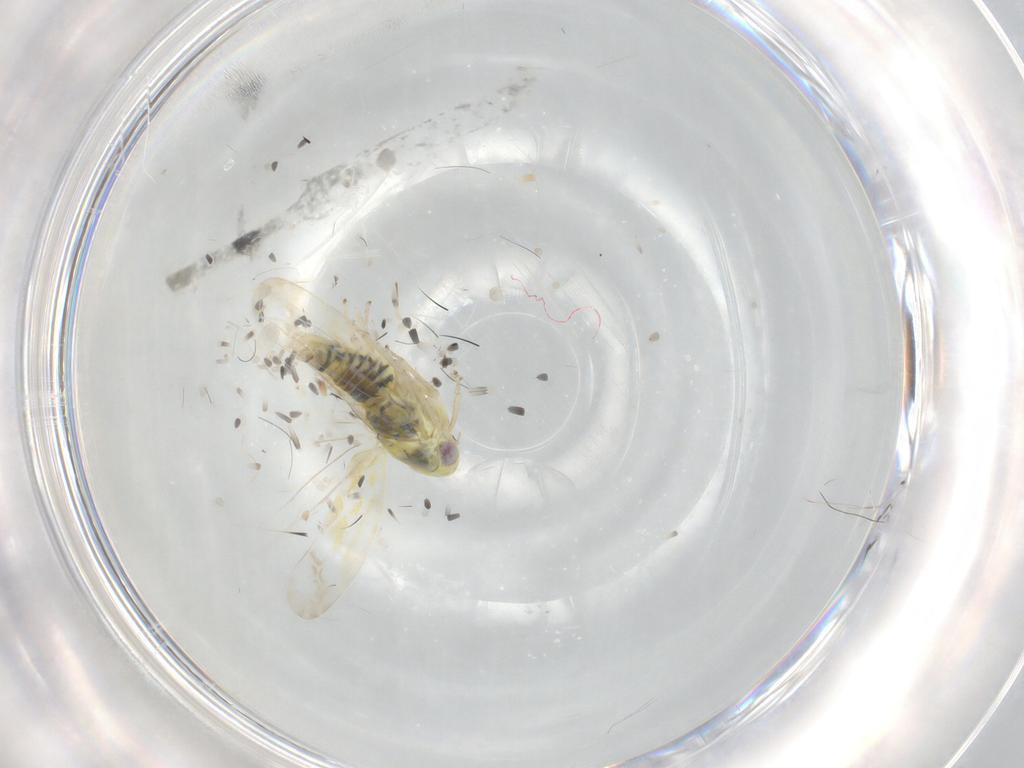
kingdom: Animalia
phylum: Arthropoda
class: Insecta
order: Hemiptera
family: Cicadellidae
